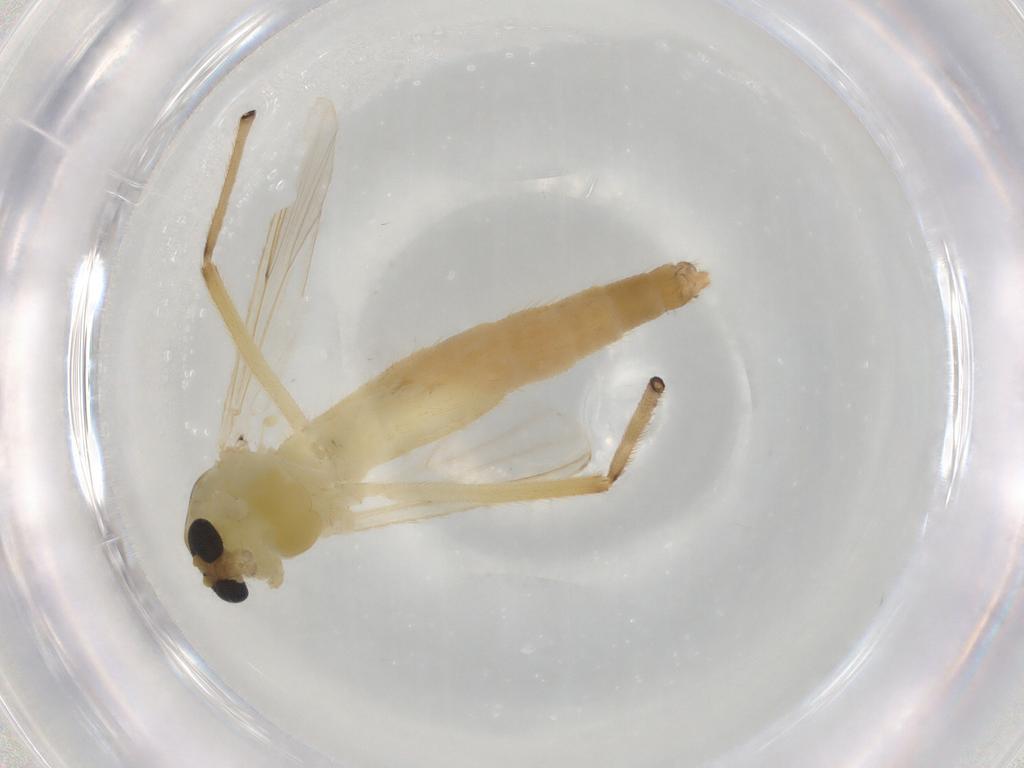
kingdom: Animalia
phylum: Arthropoda
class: Insecta
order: Diptera
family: Chironomidae
